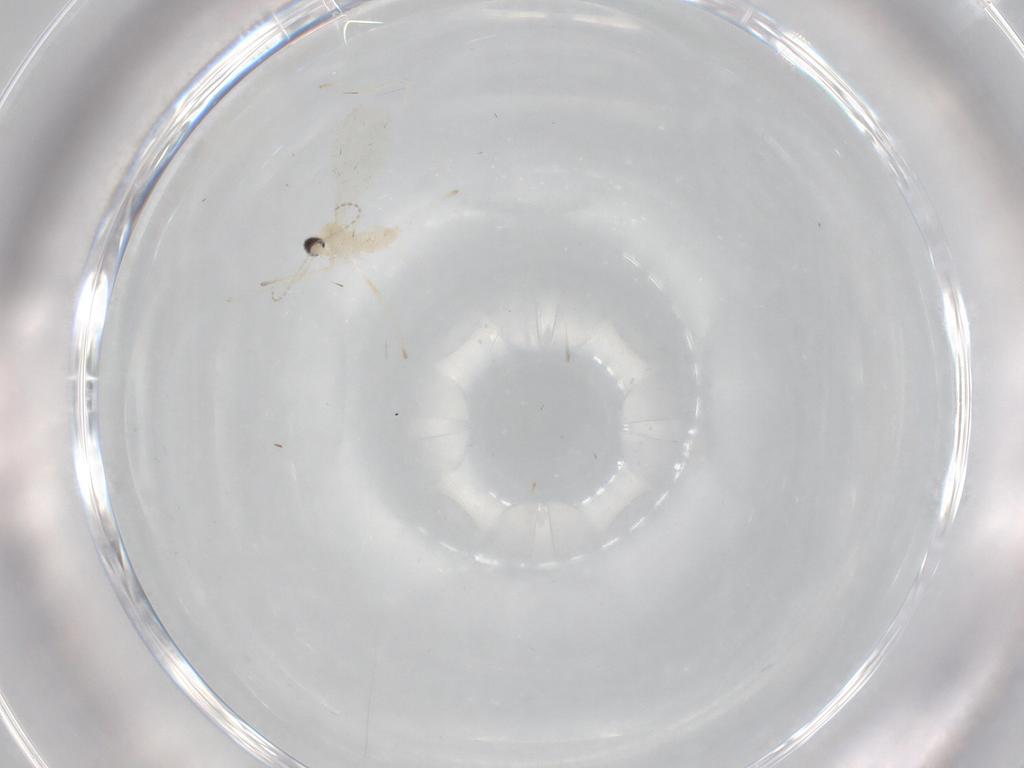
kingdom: Animalia
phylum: Arthropoda
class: Insecta
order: Diptera
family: Cecidomyiidae
